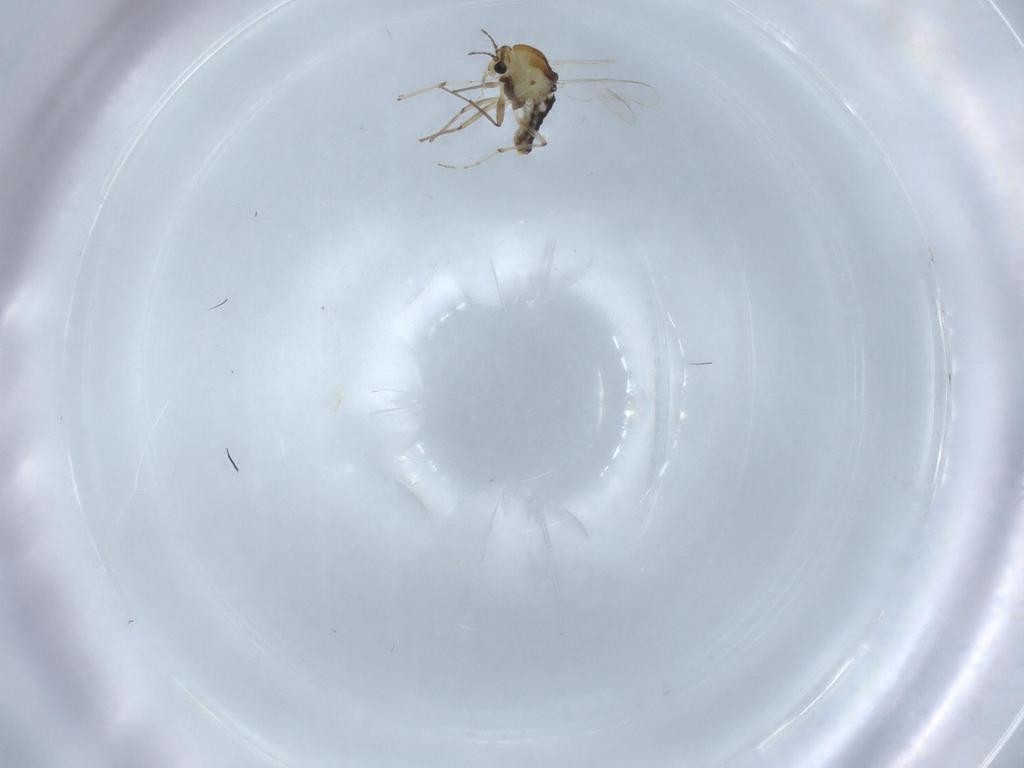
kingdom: Animalia
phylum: Arthropoda
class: Insecta
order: Diptera
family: Chironomidae
